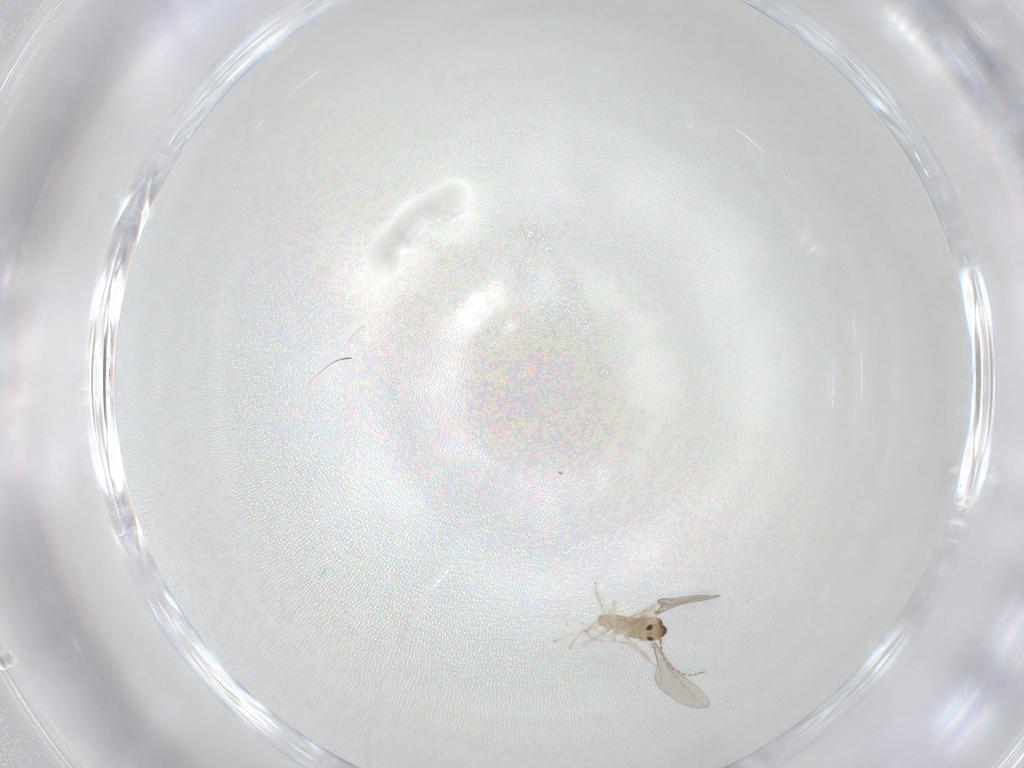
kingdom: Animalia
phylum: Arthropoda
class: Insecta
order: Diptera
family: Cecidomyiidae
